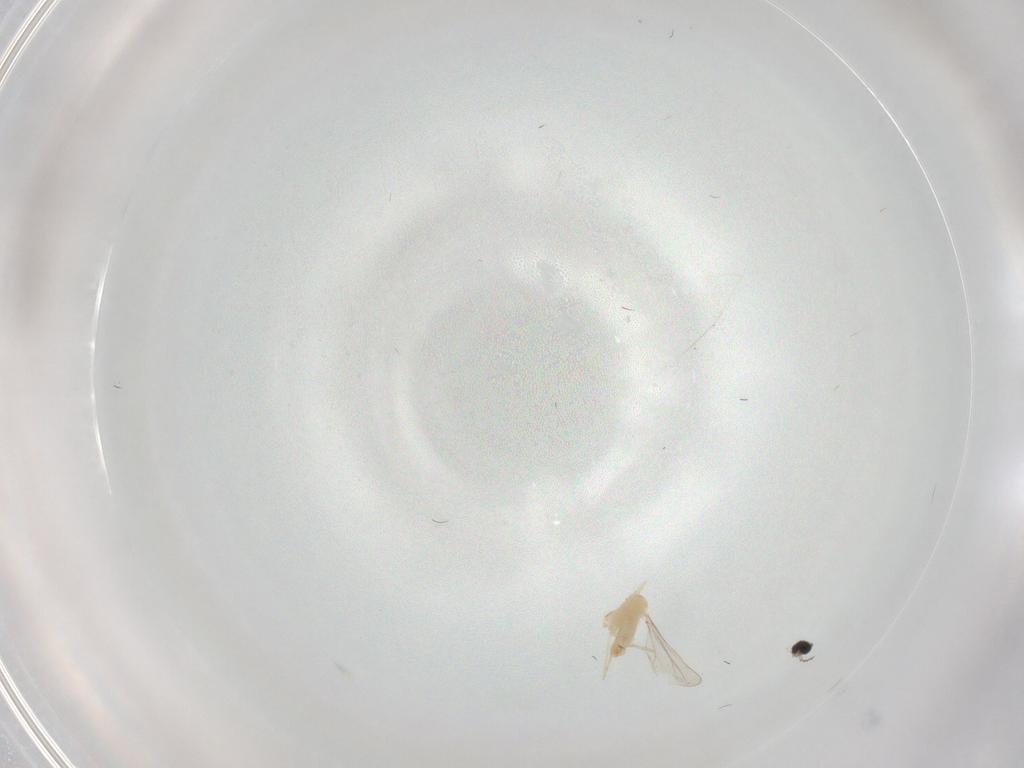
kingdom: Animalia
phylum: Arthropoda
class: Insecta
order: Diptera
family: Cecidomyiidae
